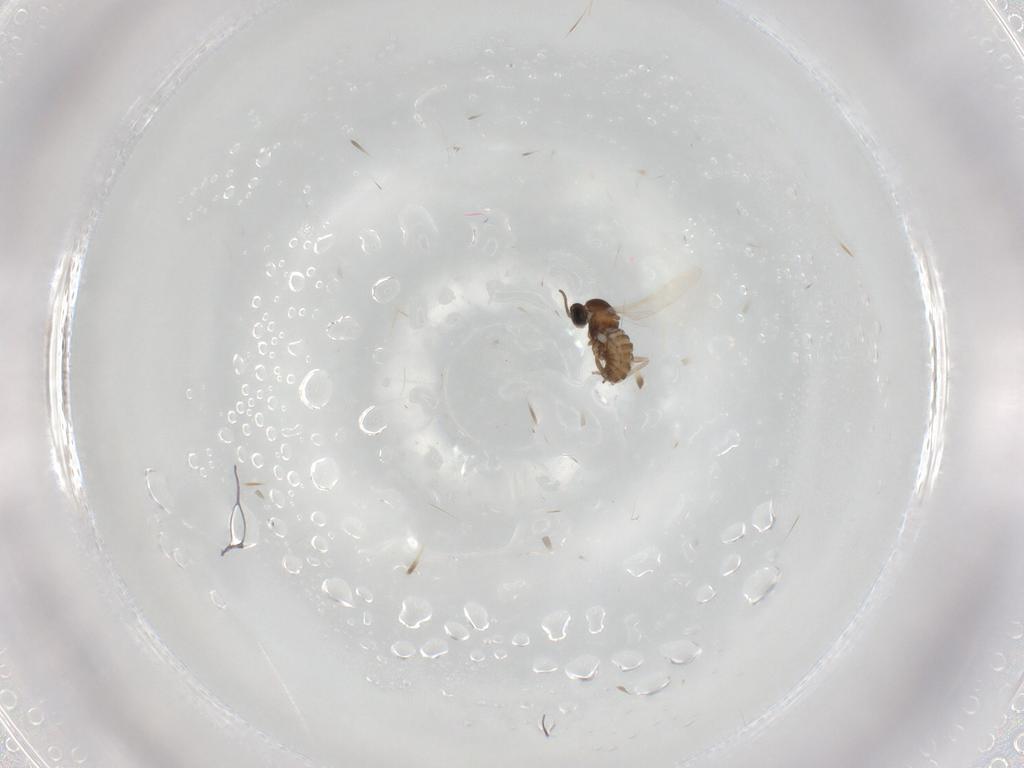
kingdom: Animalia
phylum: Arthropoda
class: Insecta
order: Diptera
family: Cecidomyiidae
